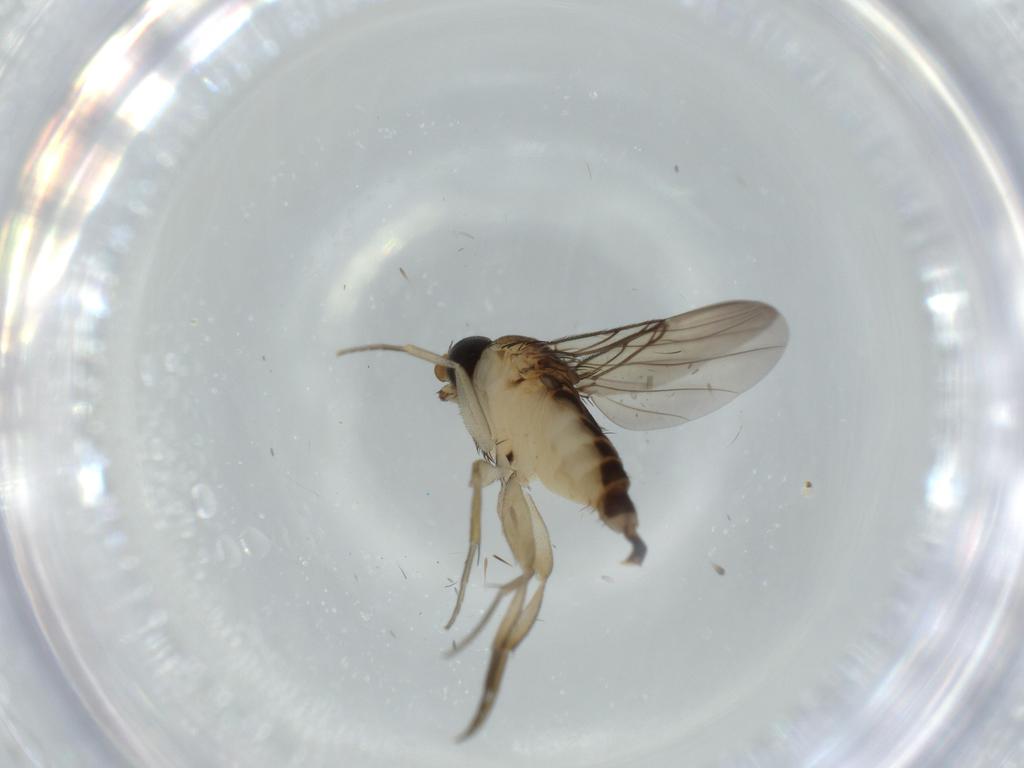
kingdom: Animalia
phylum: Arthropoda
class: Insecta
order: Diptera
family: Phoridae
